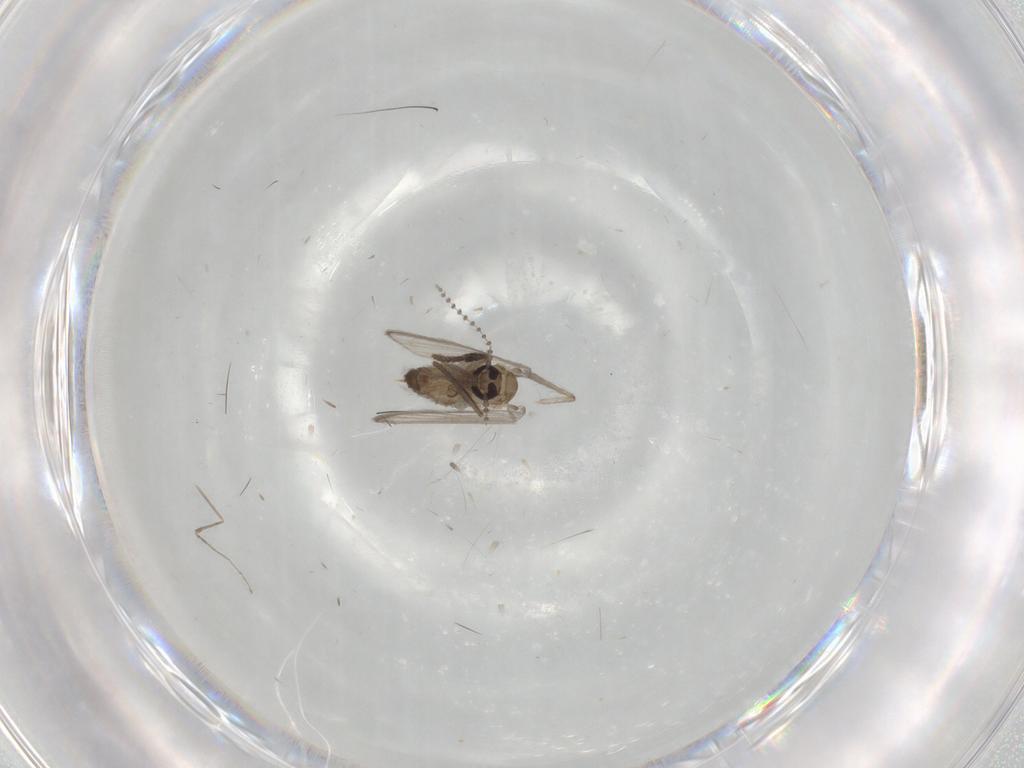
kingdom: Animalia
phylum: Arthropoda
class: Insecta
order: Diptera
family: Psychodidae
